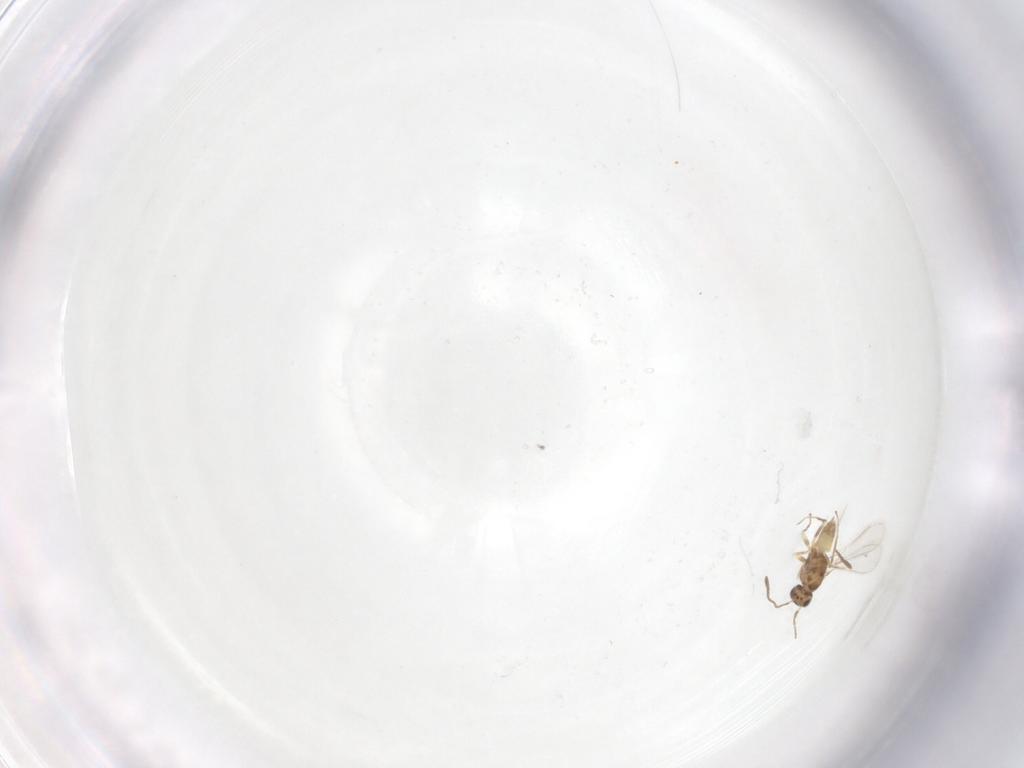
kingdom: Animalia
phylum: Arthropoda
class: Insecta
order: Hymenoptera
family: Mymaridae
